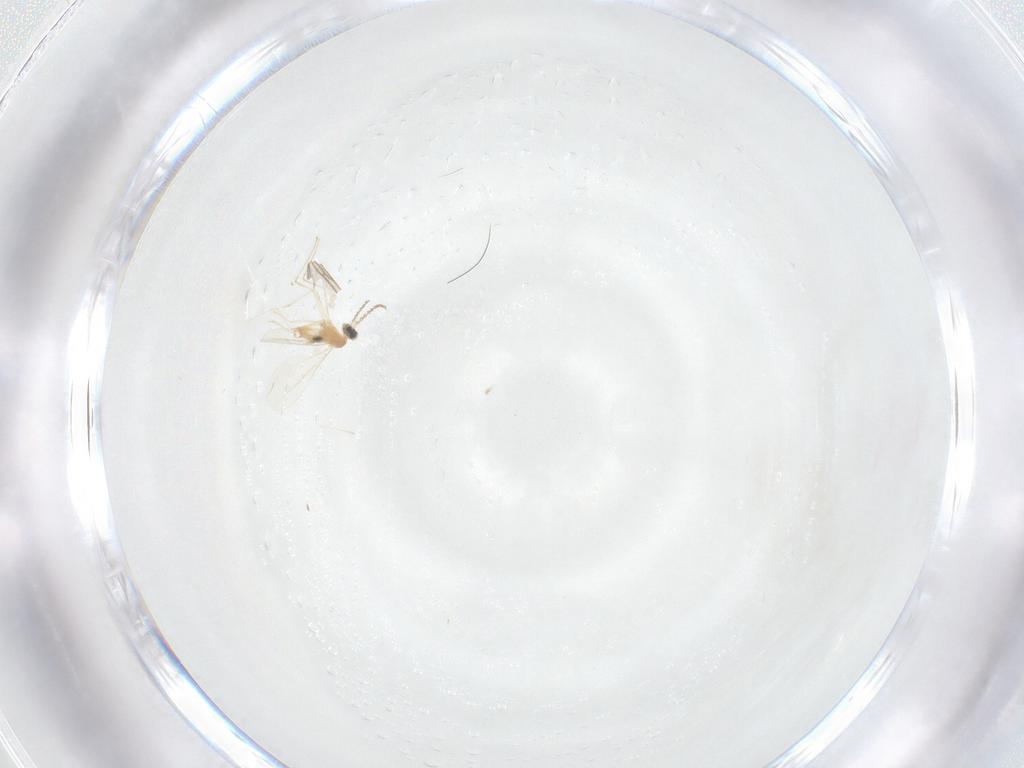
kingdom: Animalia
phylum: Arthropoda
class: Insecta
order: Diptera
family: Cecidomyiidae
